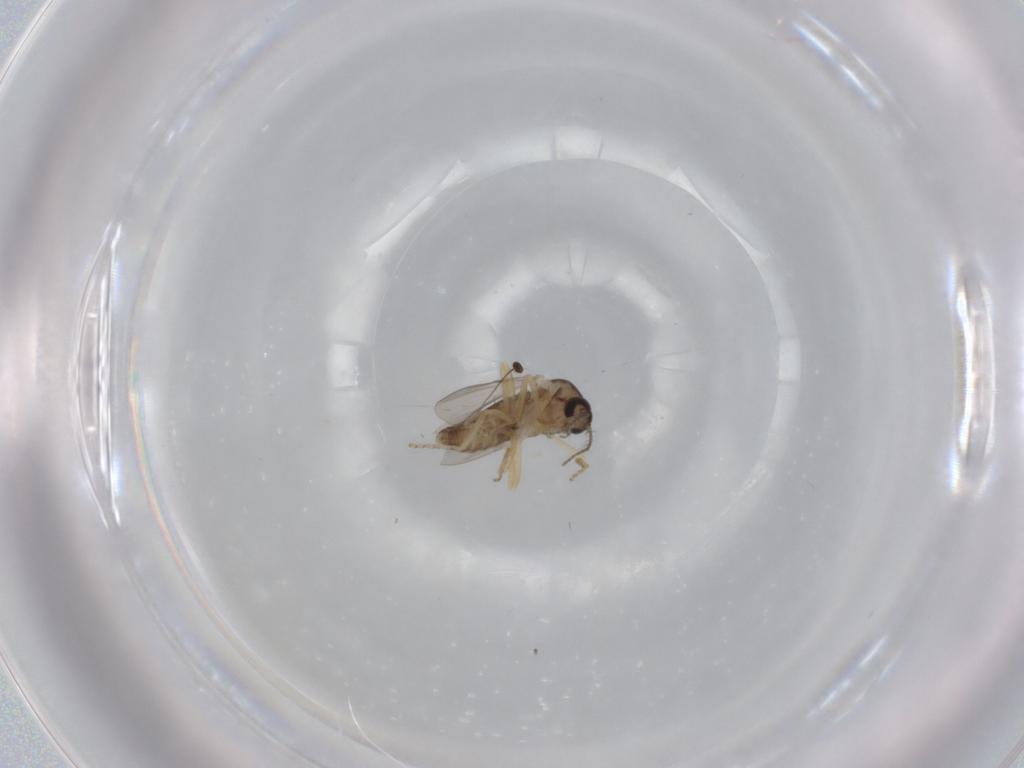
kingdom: Animalia
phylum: Arthropoda
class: Insecta
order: Diptera
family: Ceratopogonidae
